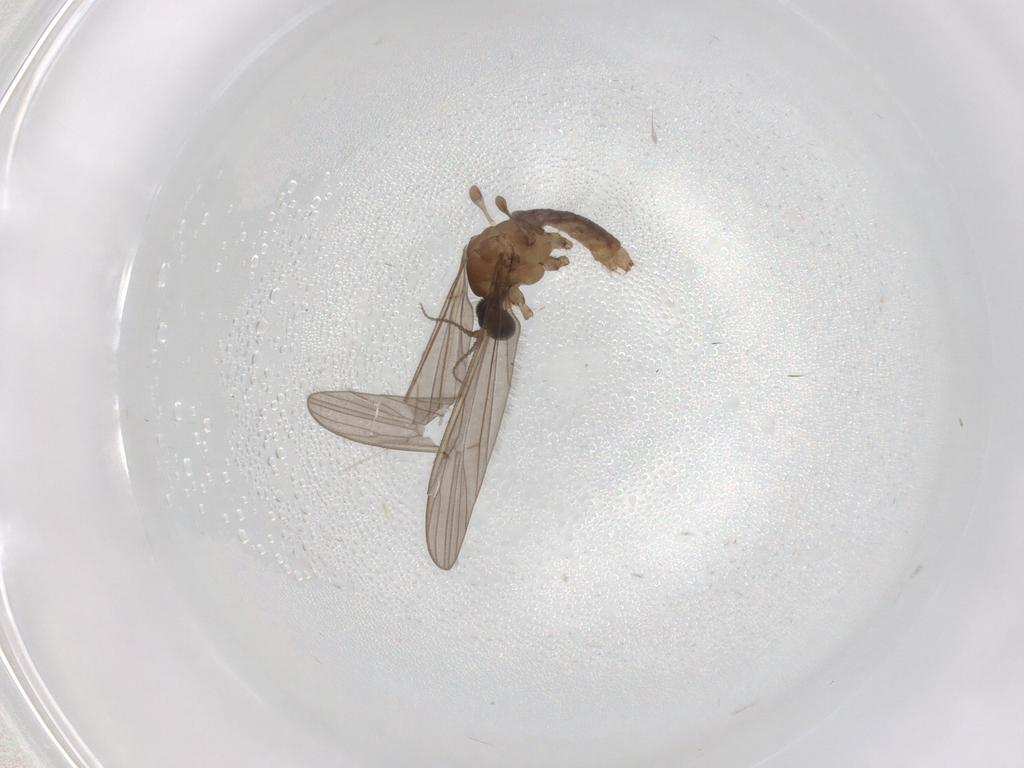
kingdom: Animalia
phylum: Arthropoda
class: Insecta
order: Diptera
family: Limoniidae
